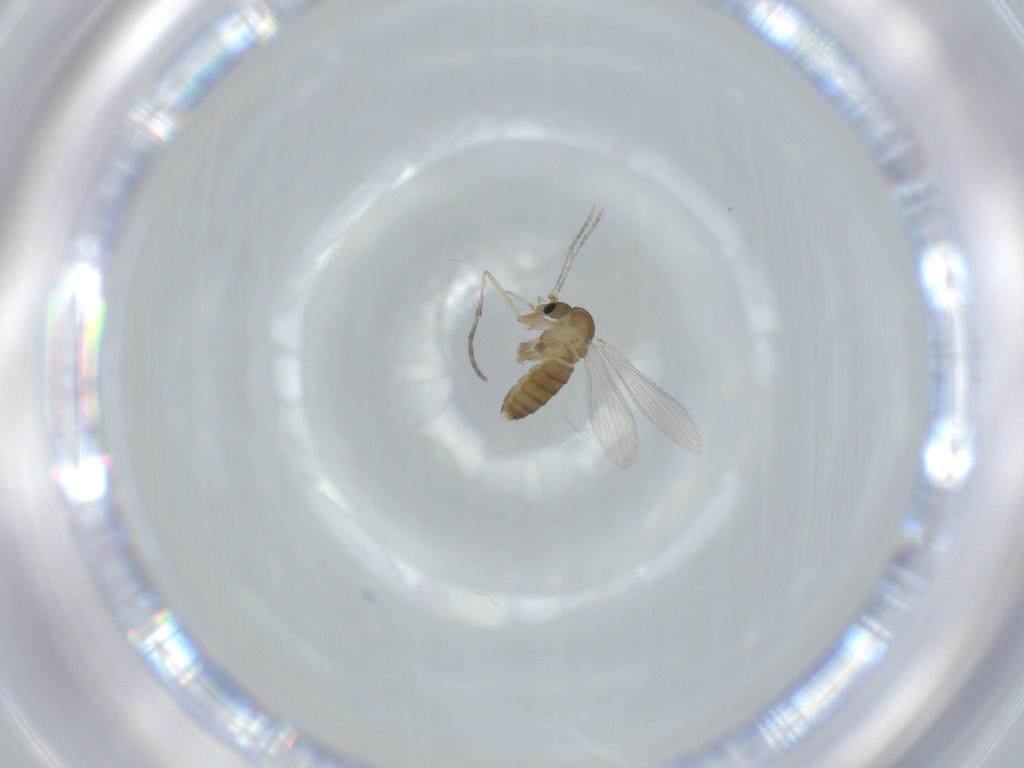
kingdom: Animalia
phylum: Arthropoda
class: Insecta
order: Diptera
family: Psychodidae
